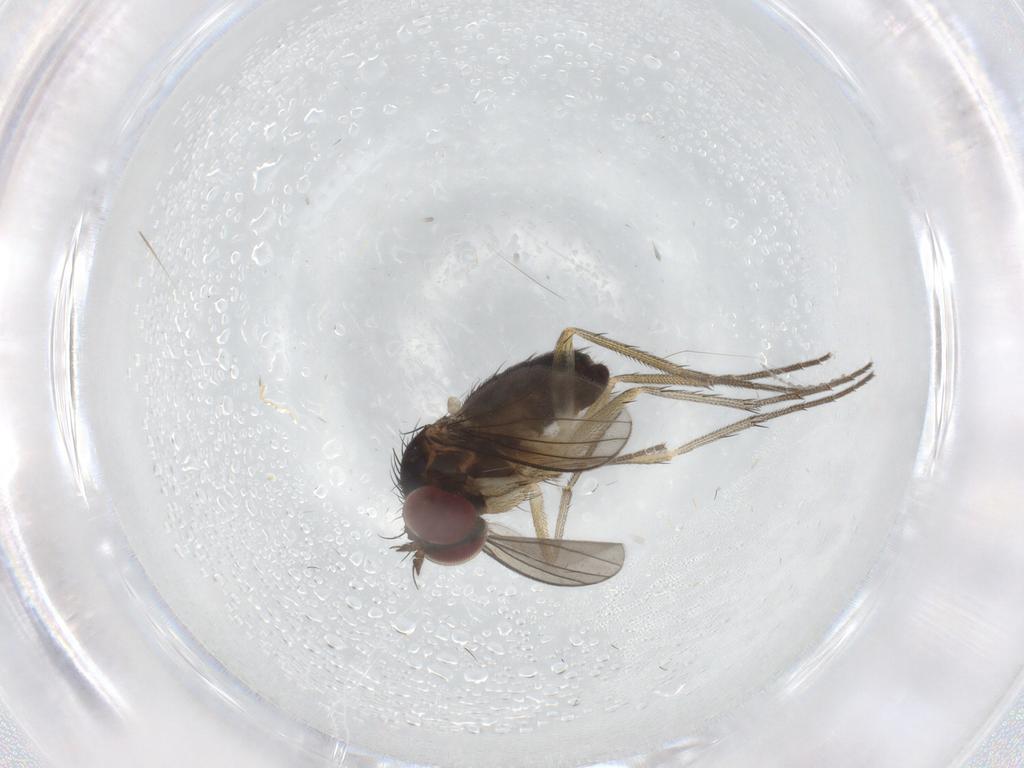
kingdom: Animalia
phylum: Arthropoda
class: Insecta
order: Diptera
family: Dolichopodidae
